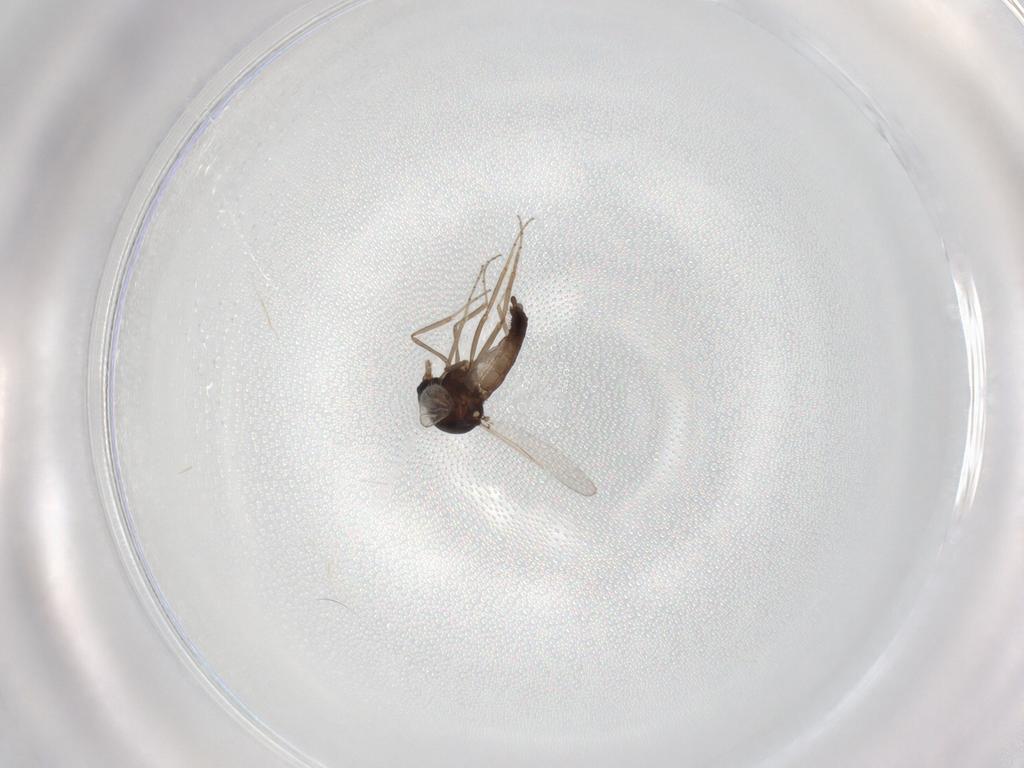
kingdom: Animalia
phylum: Arthropoda
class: Insecta
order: Diptera
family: Ceratopogonidae
